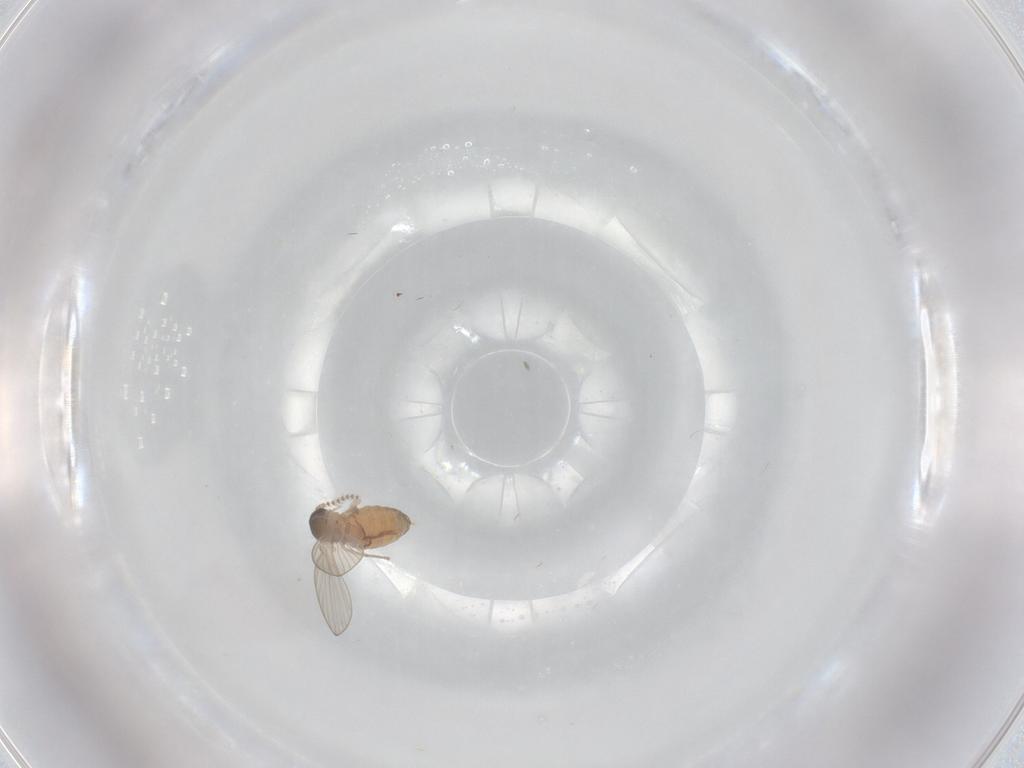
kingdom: Animalia
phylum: Arthropoda
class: Insecta
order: Diptera
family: Psychodidae
